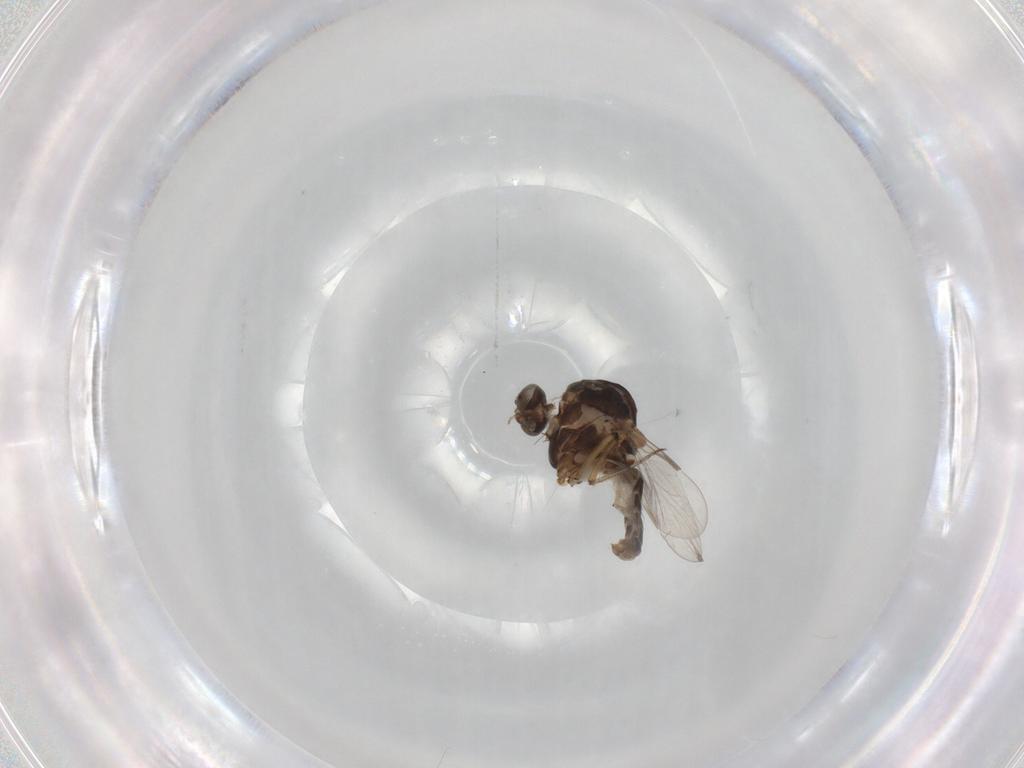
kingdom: Animalia
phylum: Arthropoda
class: Insecta
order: Diptera
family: Ceratopogonidae
